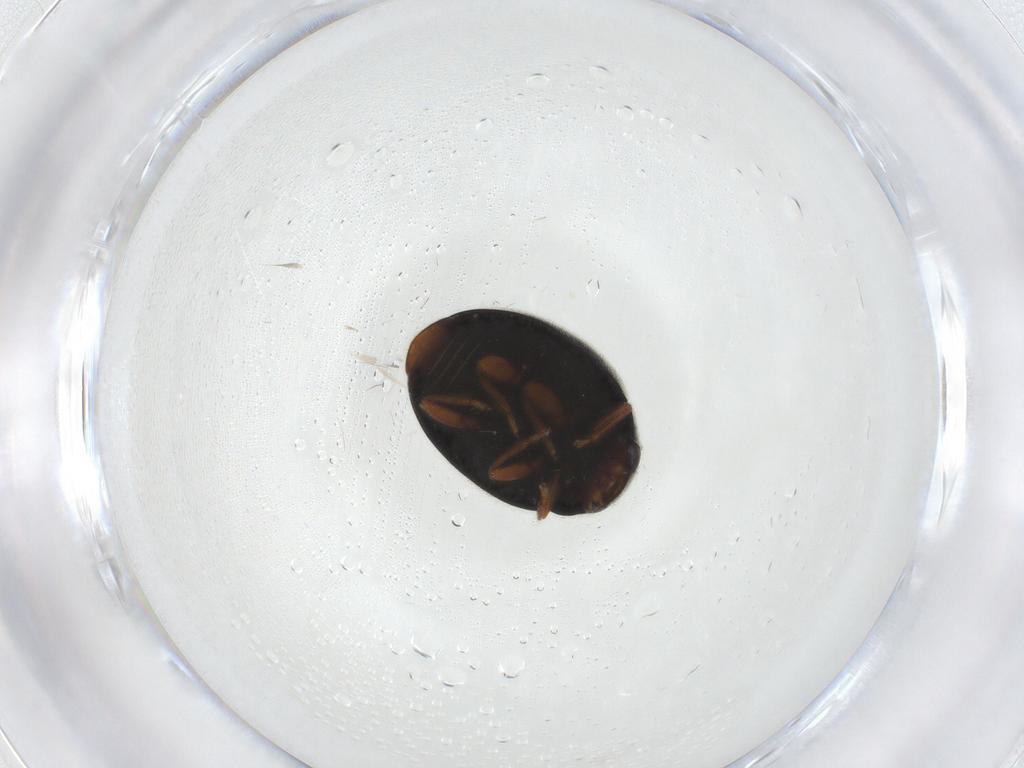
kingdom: Animalia
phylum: Arthropoda
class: Insecta
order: Coleoptera
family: Coccinellidae
